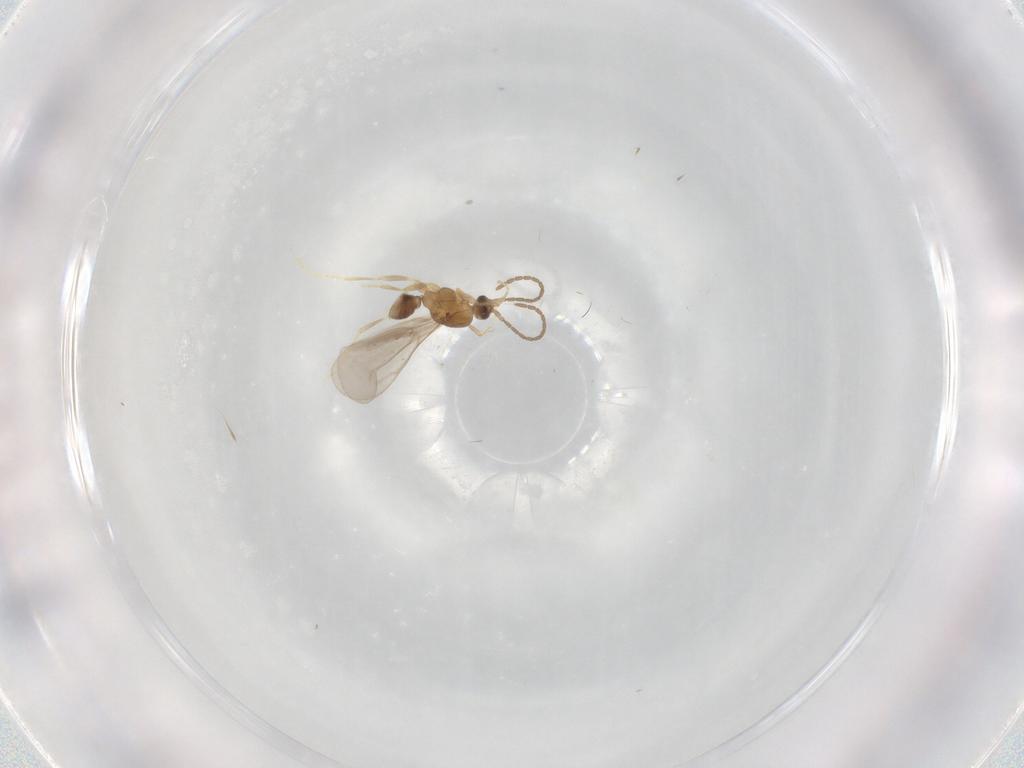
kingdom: Animalia
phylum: Arthropoda
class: Insecta
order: Hymenoptera
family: Formicidae
